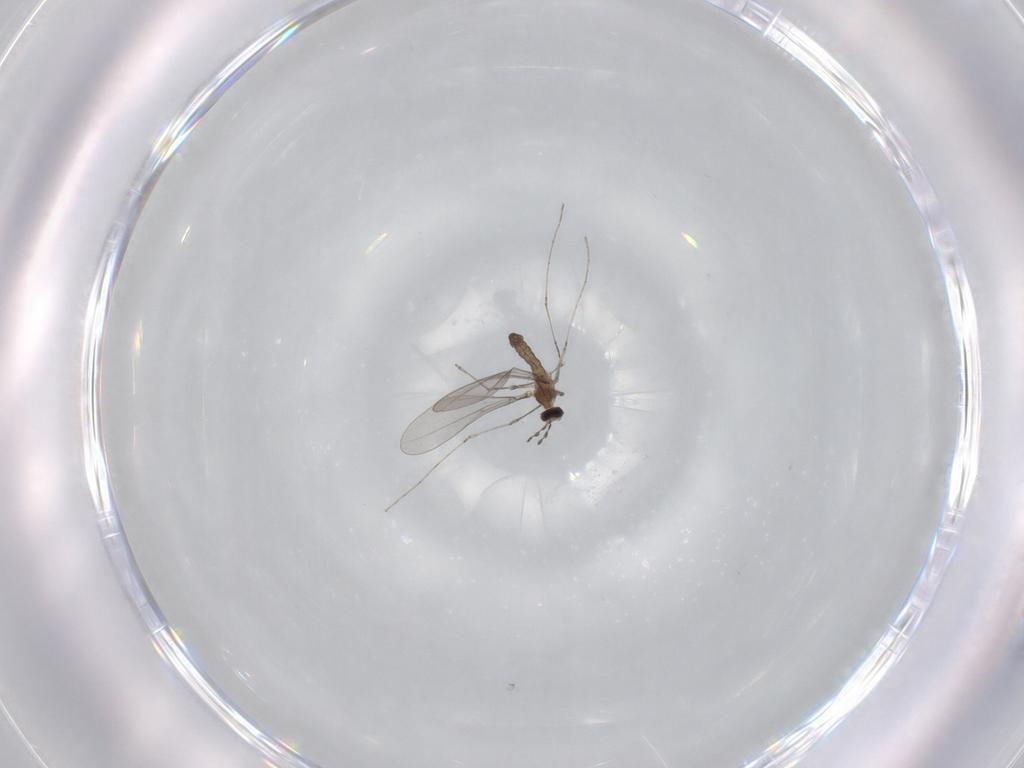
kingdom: Animalia
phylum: Arthropoda
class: Insecta
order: Diptera
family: Cecidomyiidae
